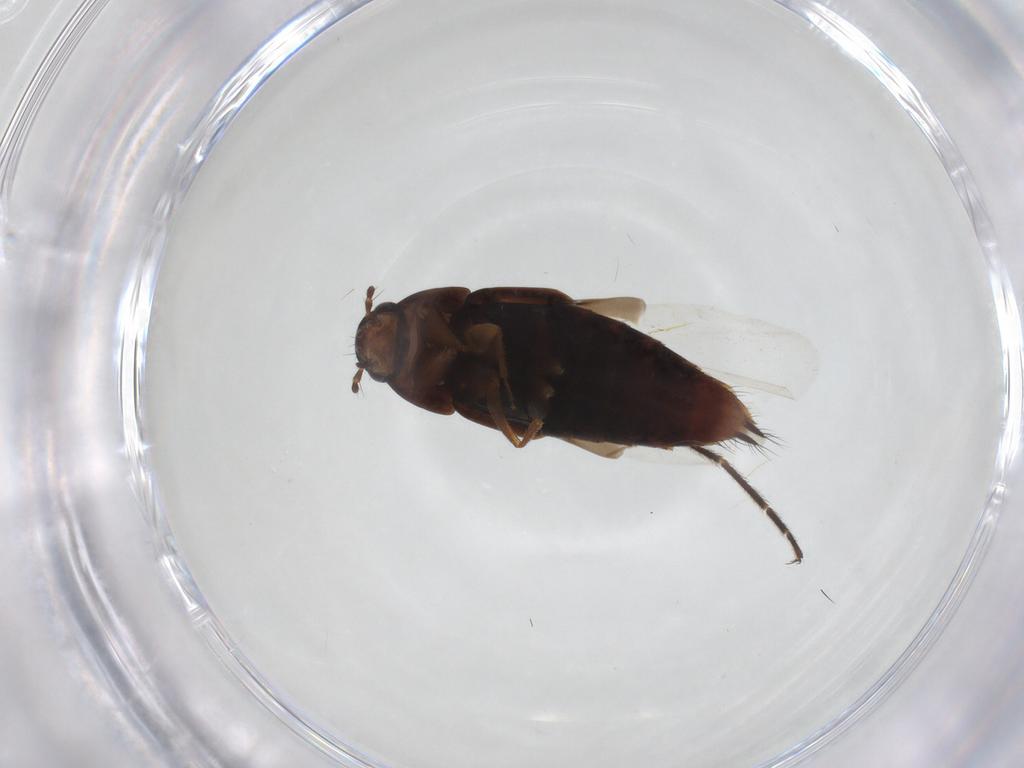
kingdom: Animalia
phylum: Arthropoda
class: Insecta
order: Coleoptera
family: Staphylinidae
